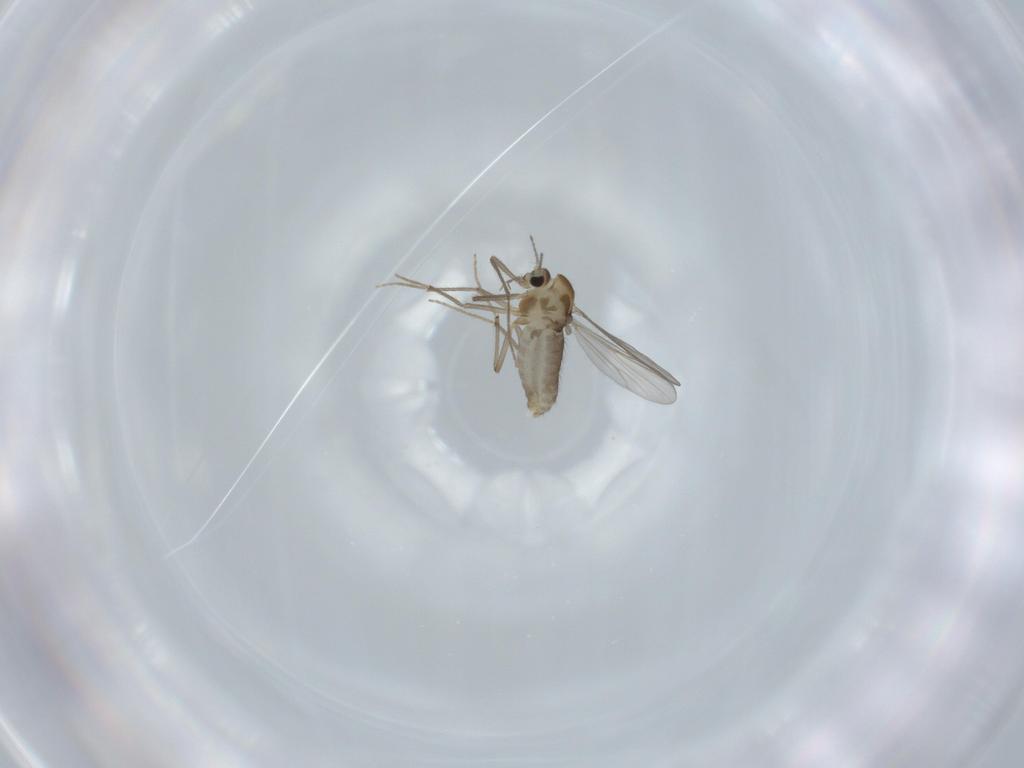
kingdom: Animalia
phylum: Arthropoda
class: Insecta
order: Diptera
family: Chironomidae
